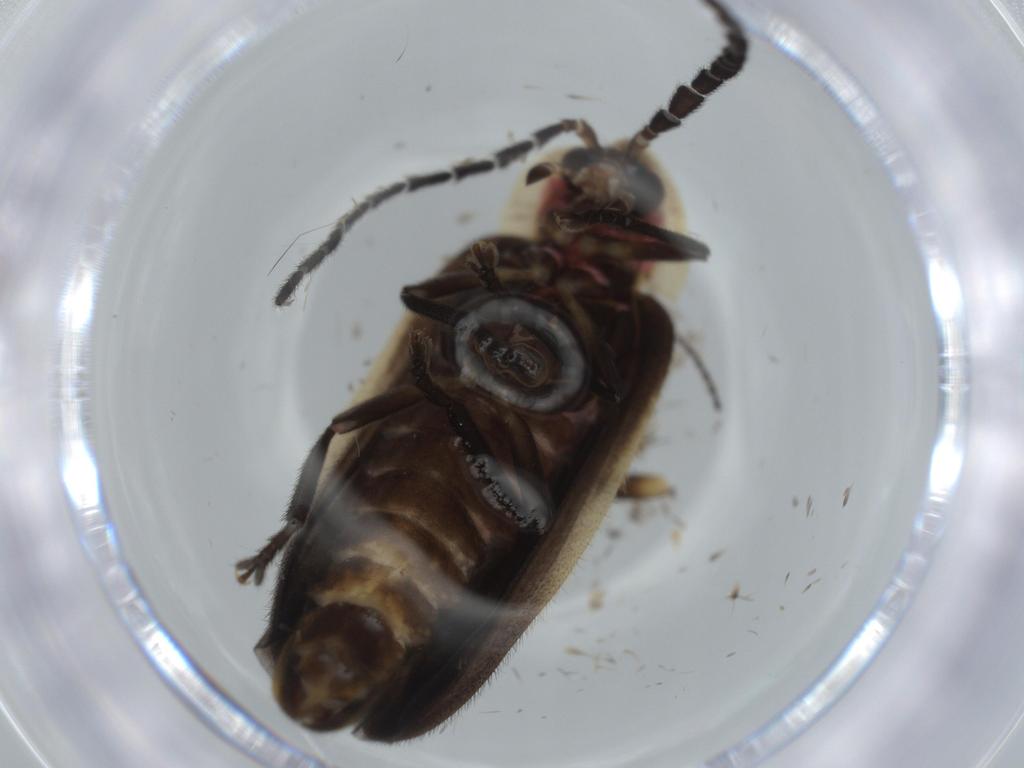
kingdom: Animalia
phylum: Arthropoda
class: Insecta
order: Coleoptera
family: Lampyridae
